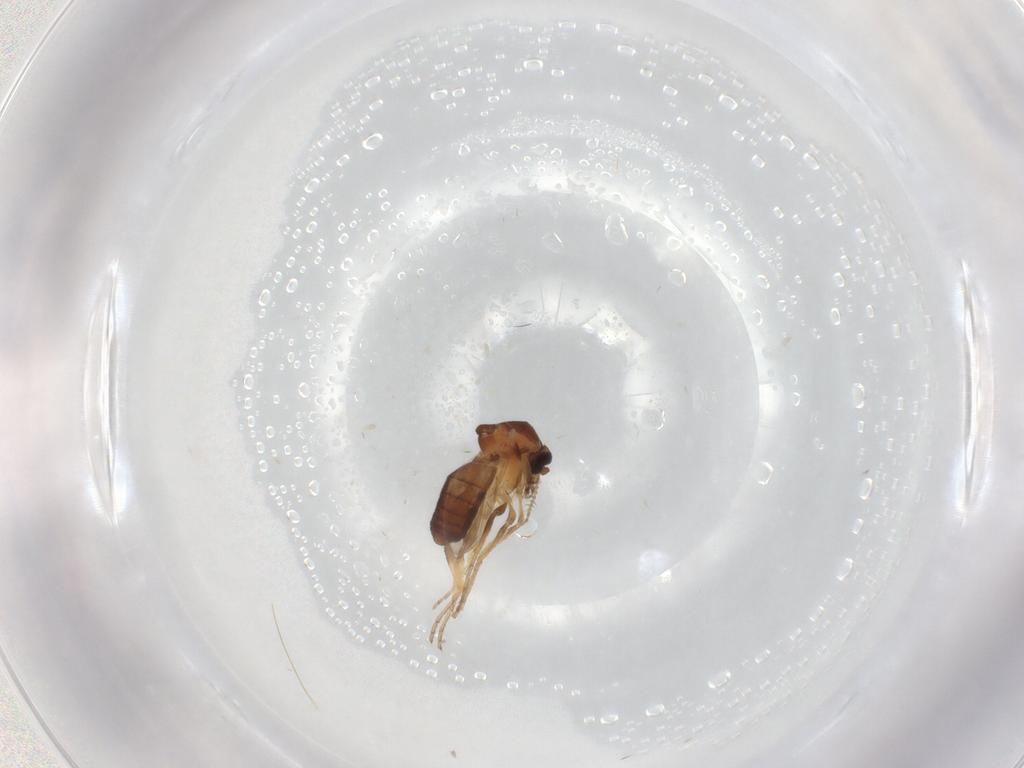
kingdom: Animalia
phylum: Arthropoda
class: Insecta
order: Diptera
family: Ceratopogonidae
